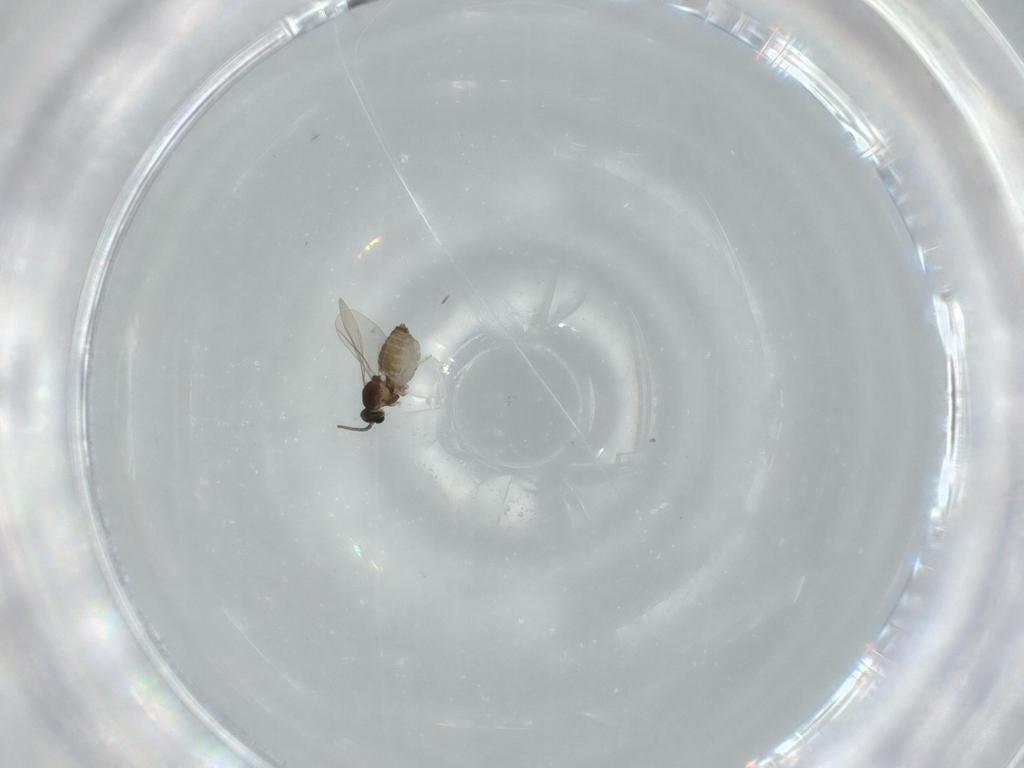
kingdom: Animalia
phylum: Arthropoda
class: Insecta
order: Diptera
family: Cecidomyiidae
